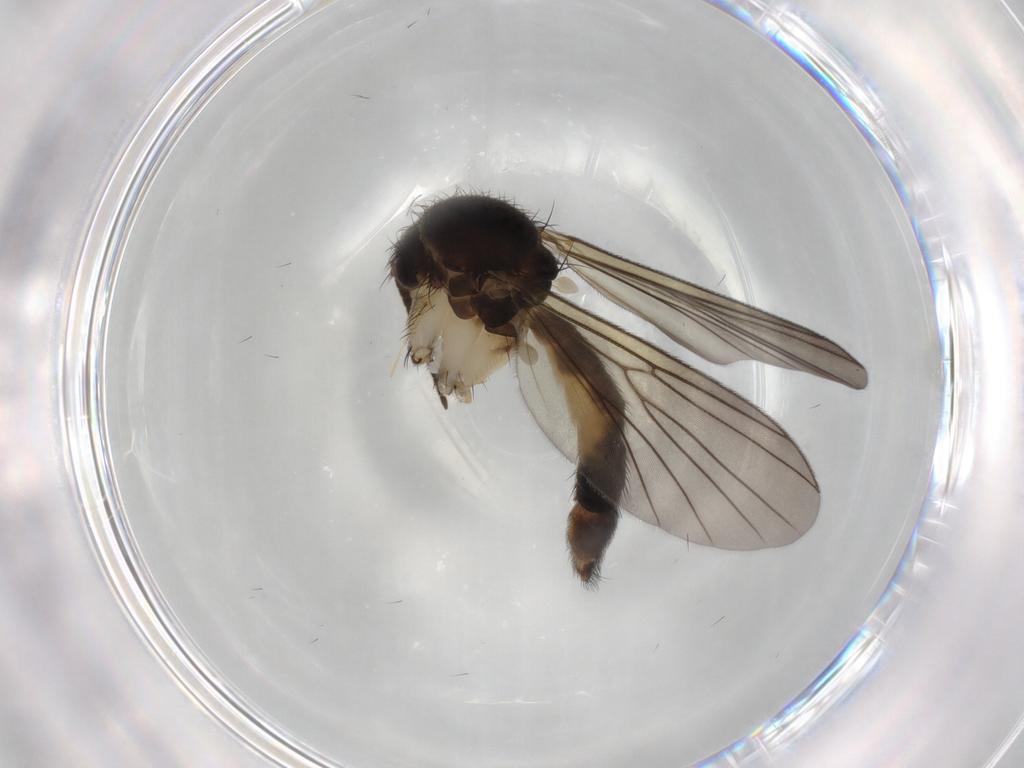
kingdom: Animalia
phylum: Arthropoda
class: Insecta
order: Diptera
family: Mycetophilidae
